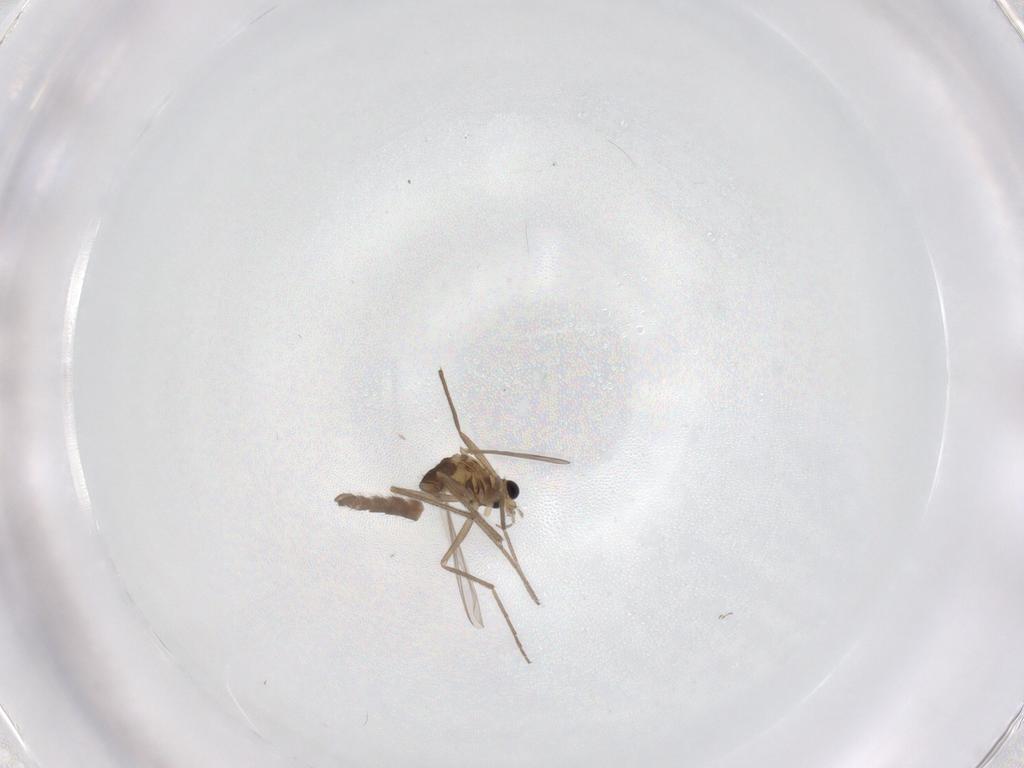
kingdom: Animalia
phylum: Arthropoda
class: Insecta
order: Diptera
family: Chironomidae
